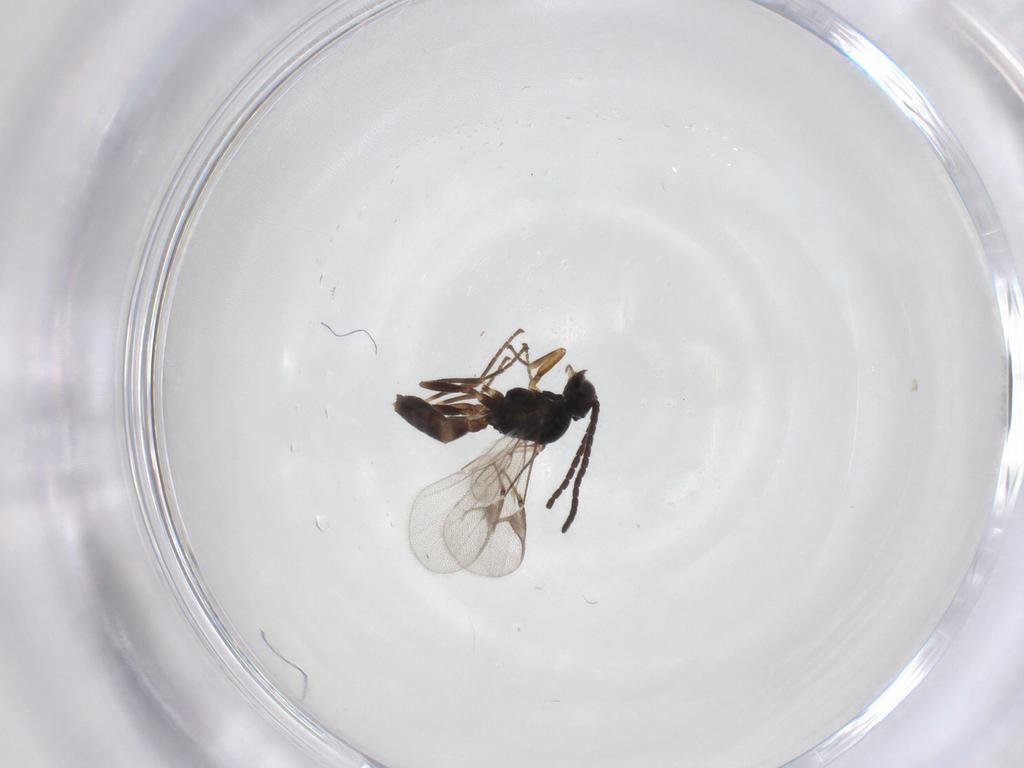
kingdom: Animalia
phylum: Arthropoda
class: Insecta
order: Hymenoptera
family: Braconidae
